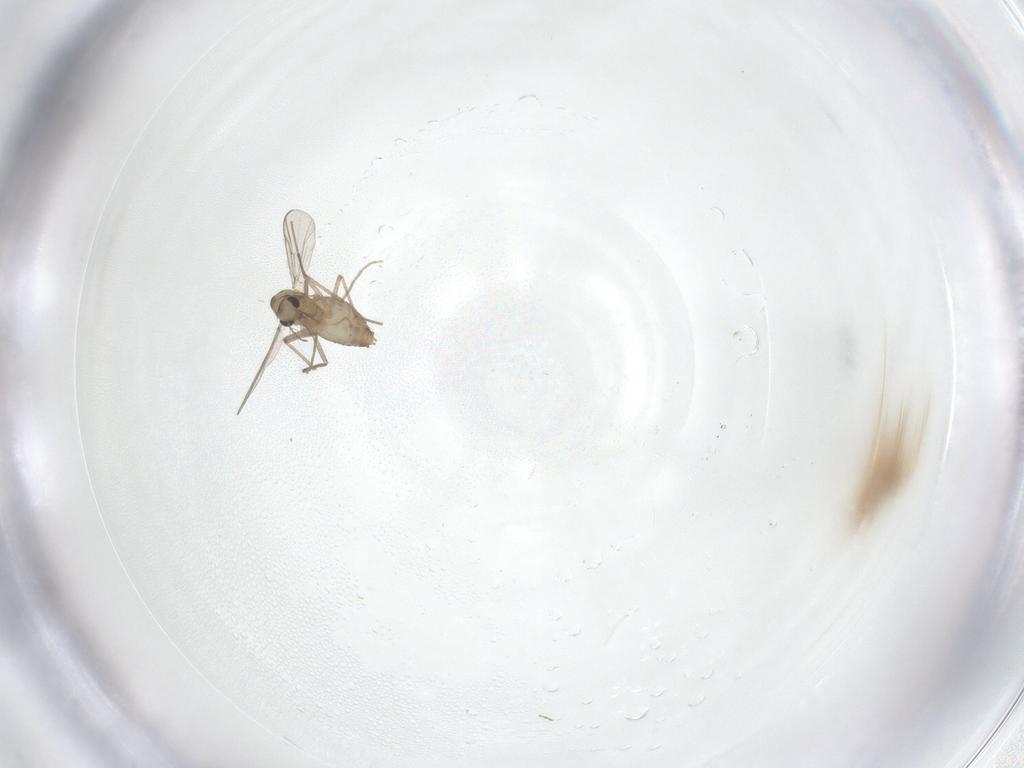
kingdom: Animalia
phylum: Arthropoda
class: Insecta
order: Diptera
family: Chironomidae
